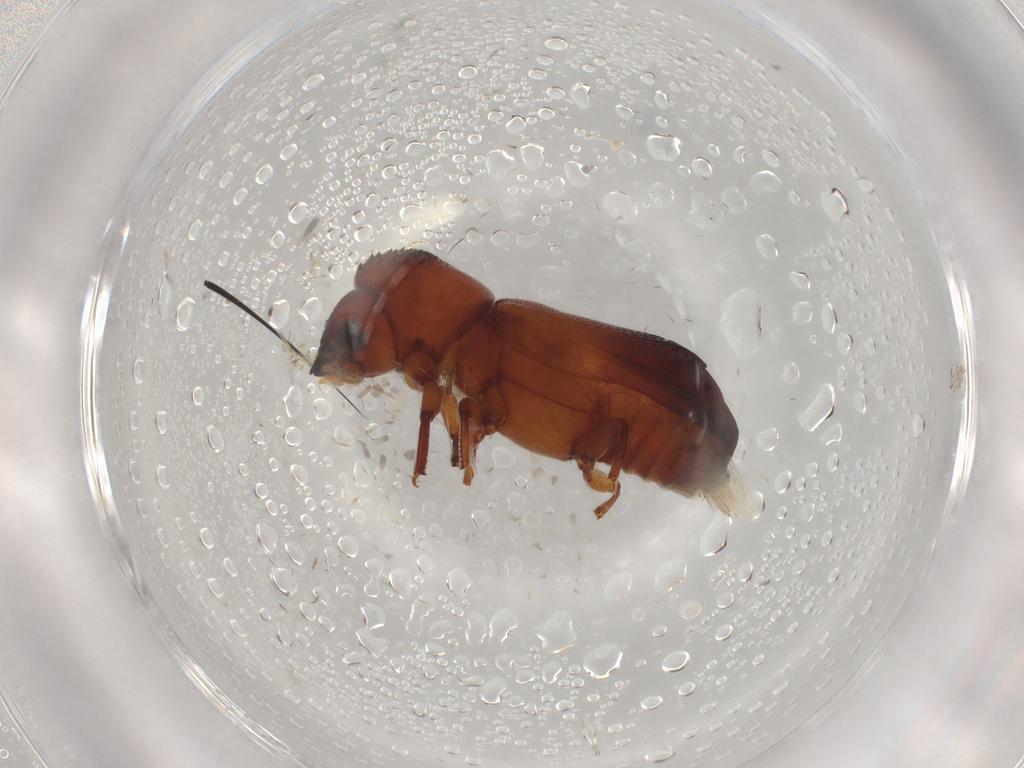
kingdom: Animalia
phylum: Arthropoda
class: Insecta
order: Coleoptera
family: Bostrichidae
